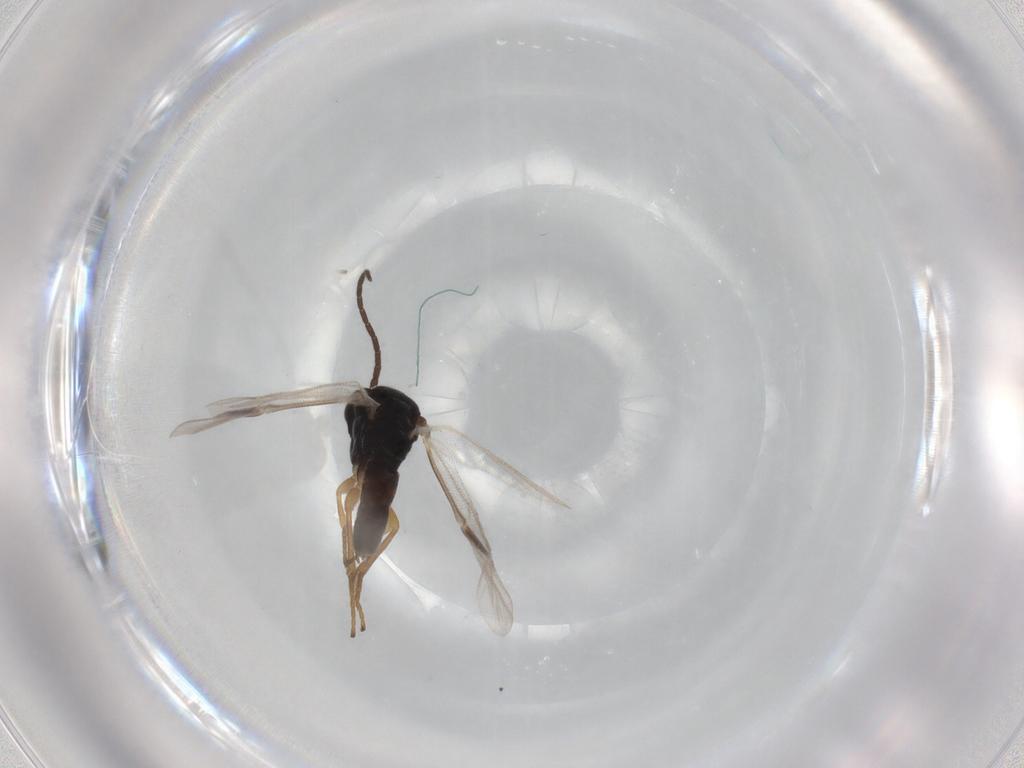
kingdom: Animalia
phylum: Arthropoda
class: Insecta
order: Hymenoptera
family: Braconidae
